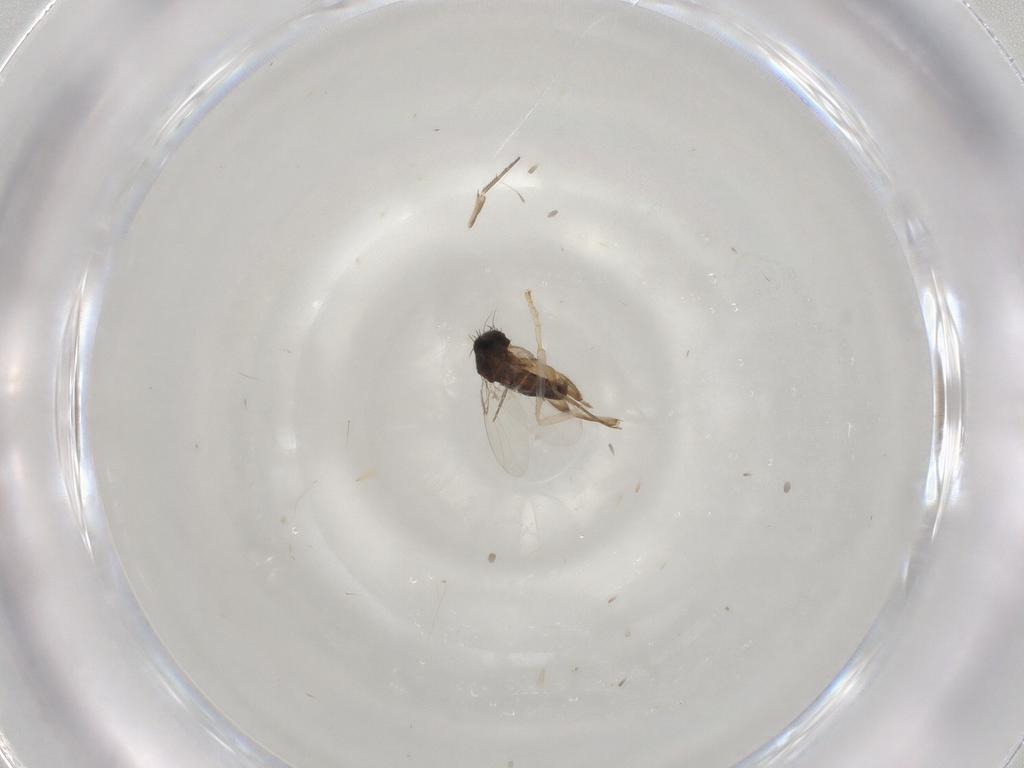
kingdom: Animalia
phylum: Arthropoda
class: Insecta
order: Diptera
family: Phoridae
